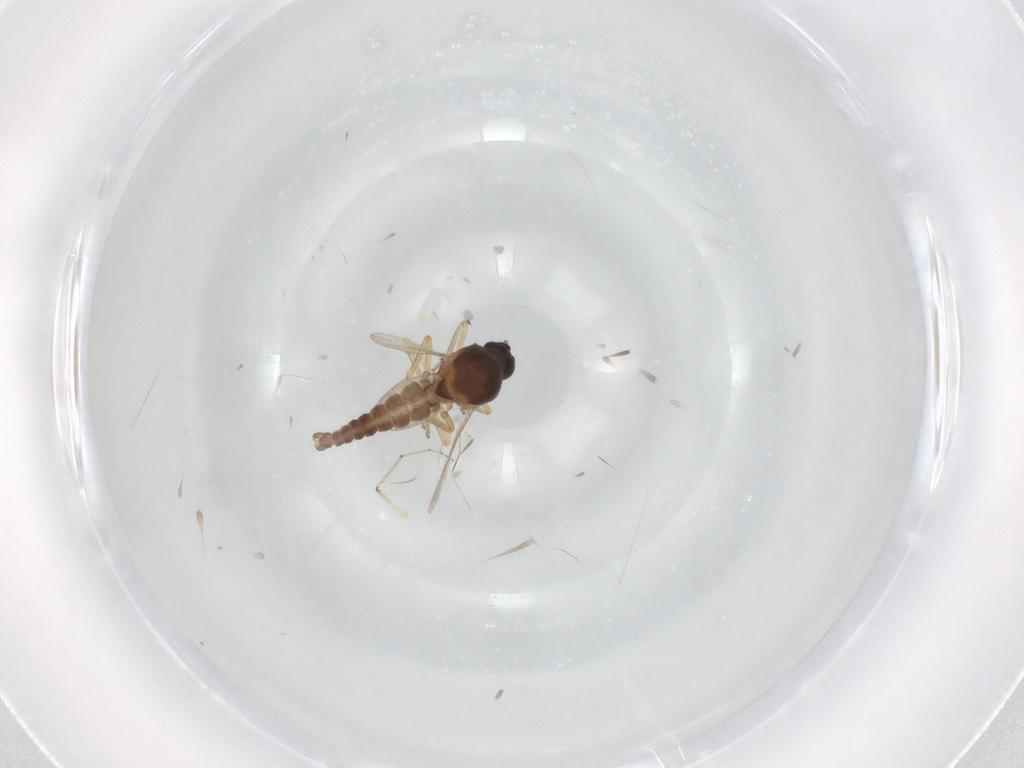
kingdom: Animalia
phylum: Arthropoda
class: Insecta
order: Diptera
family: Ceratopogonidae
